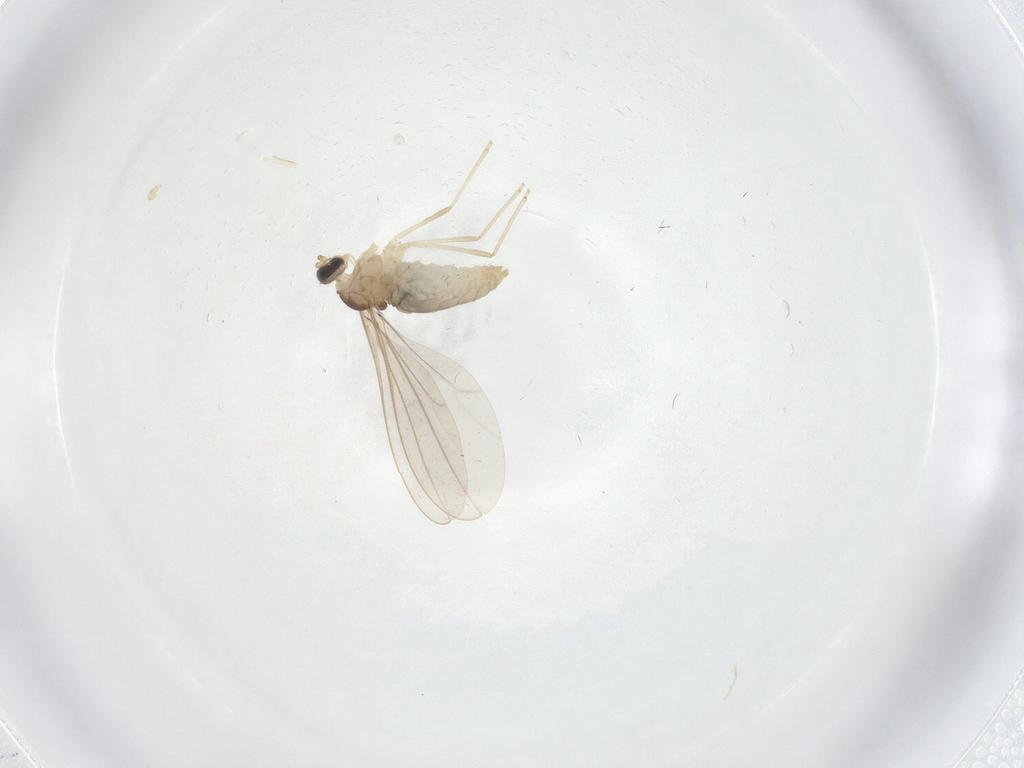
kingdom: Animalia
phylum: Arthropoda
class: Insecta
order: Diptera
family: Cecidomyiidae
